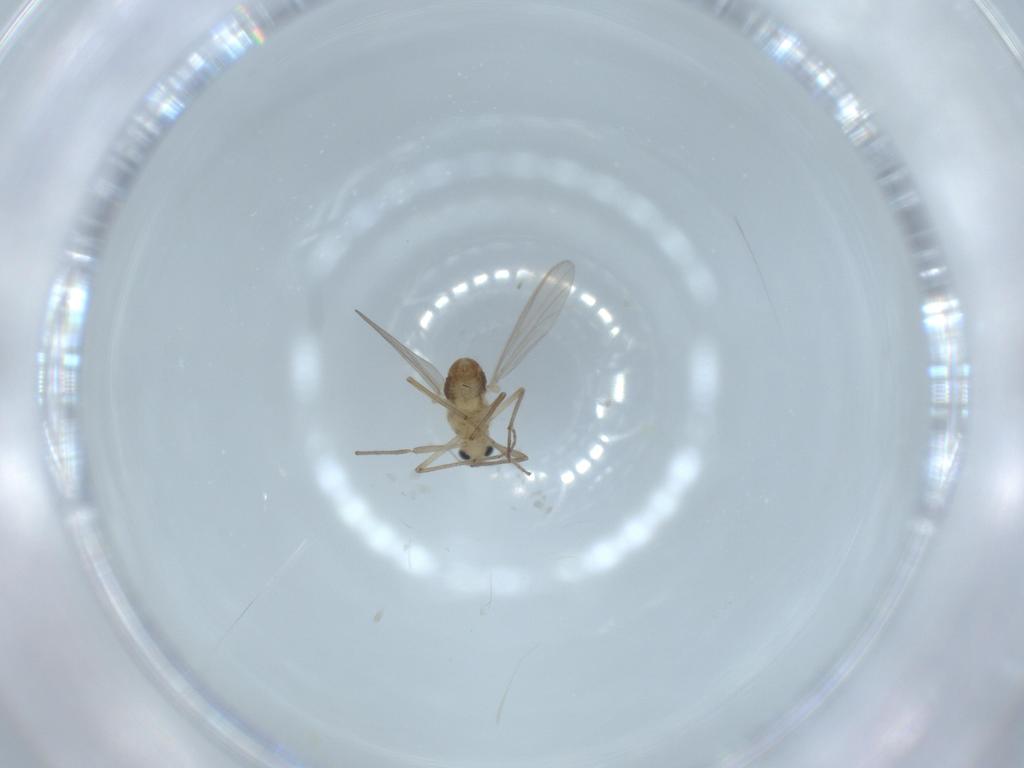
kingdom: Animalia
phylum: Arthropoda
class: Insecta
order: Diptera
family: Chironomidae
